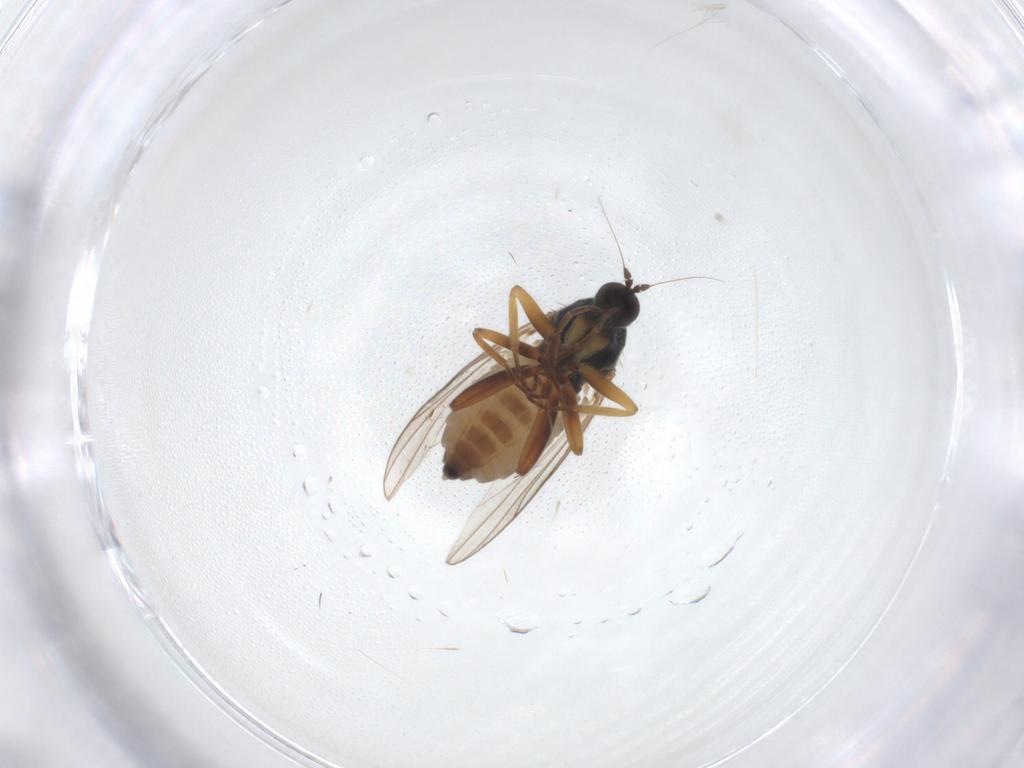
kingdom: Animalia
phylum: Arthropoda
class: Insecta
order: Diptera
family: Hybotidae
